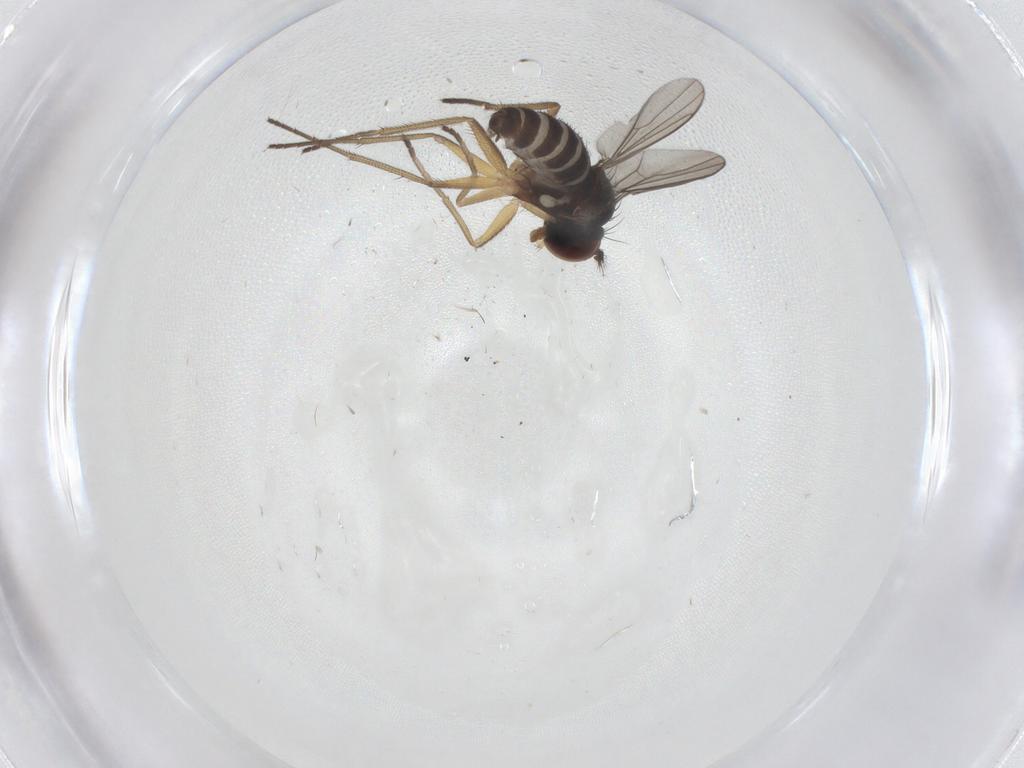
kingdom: Animalia
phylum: Arthropoda
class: Insecta
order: Diptera
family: Dolichopodidae
